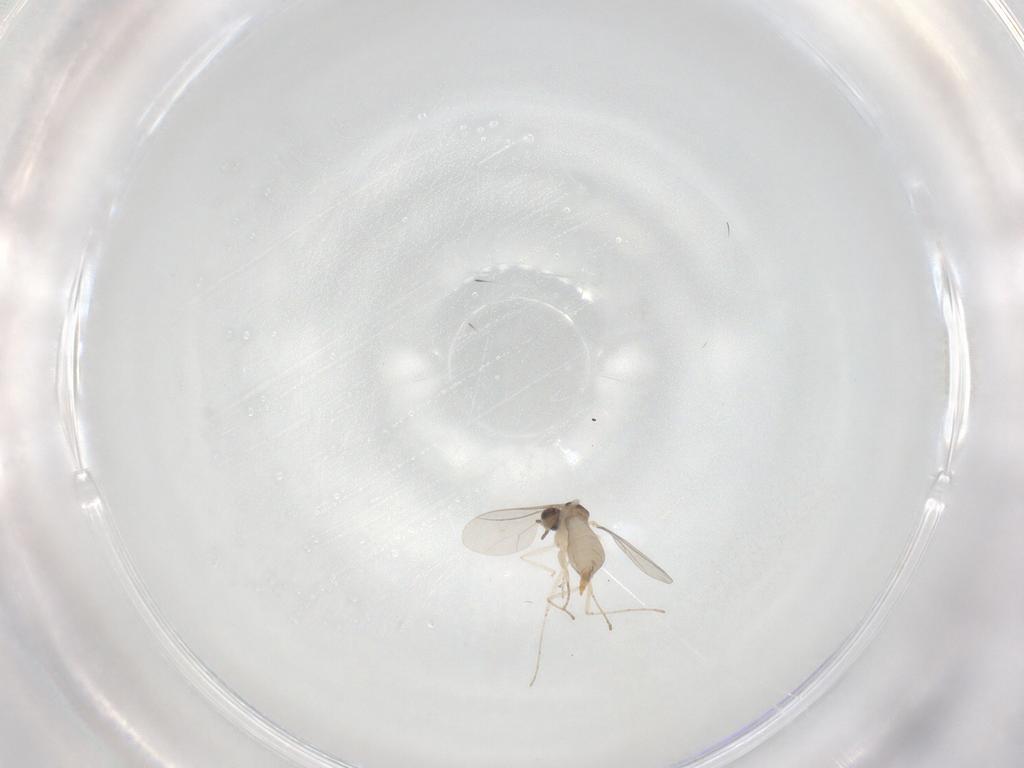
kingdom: Animalia
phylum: Arthropoda
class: Insecta
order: Diptera
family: Cecidomyiidae
